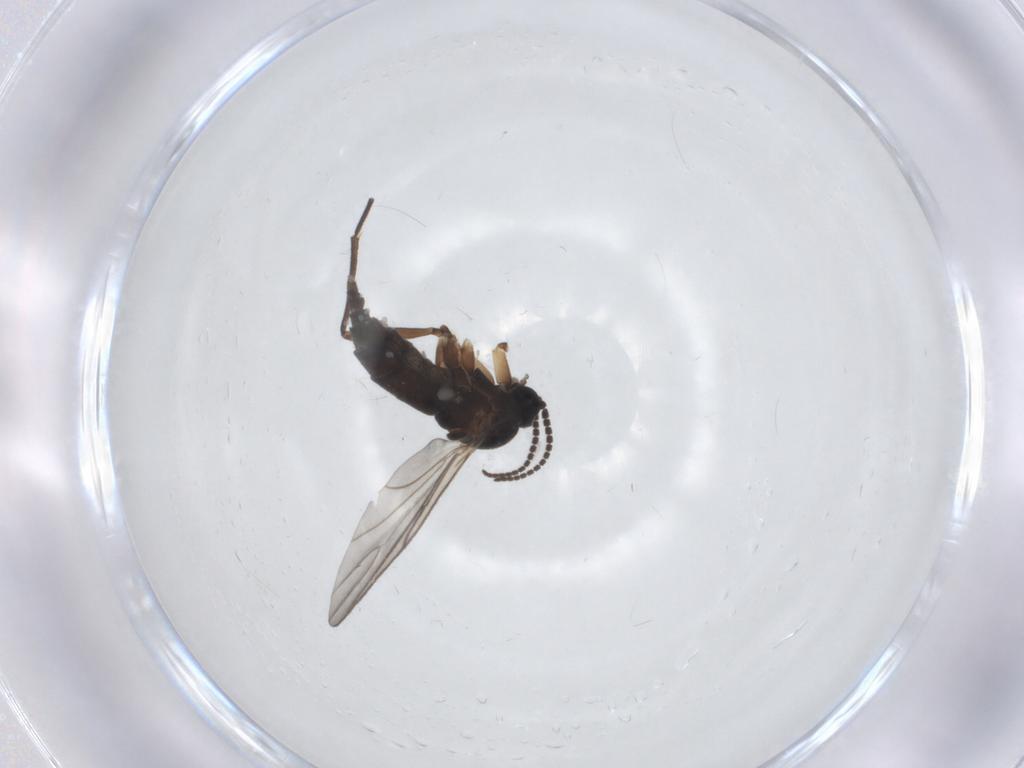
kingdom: Animalia
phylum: Arthropoda
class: Insecta
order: Diptera
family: Sciaridae
